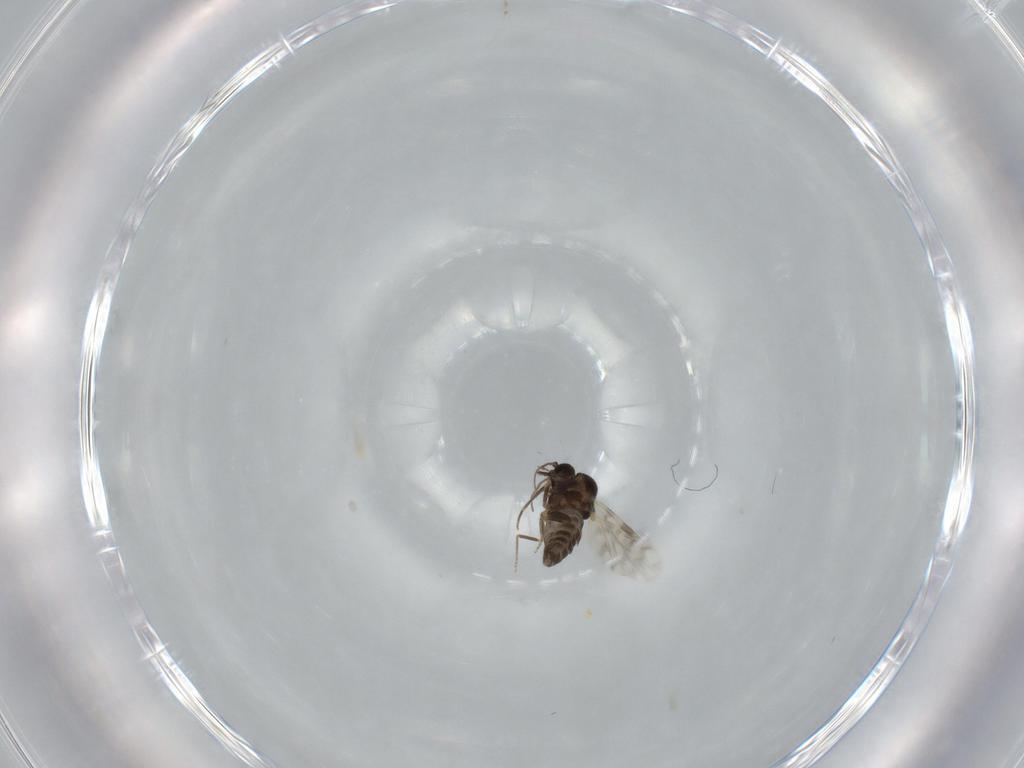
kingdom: Animalia
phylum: Arthropoda
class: Insecta
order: Diptera
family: Ceratopogonidae
